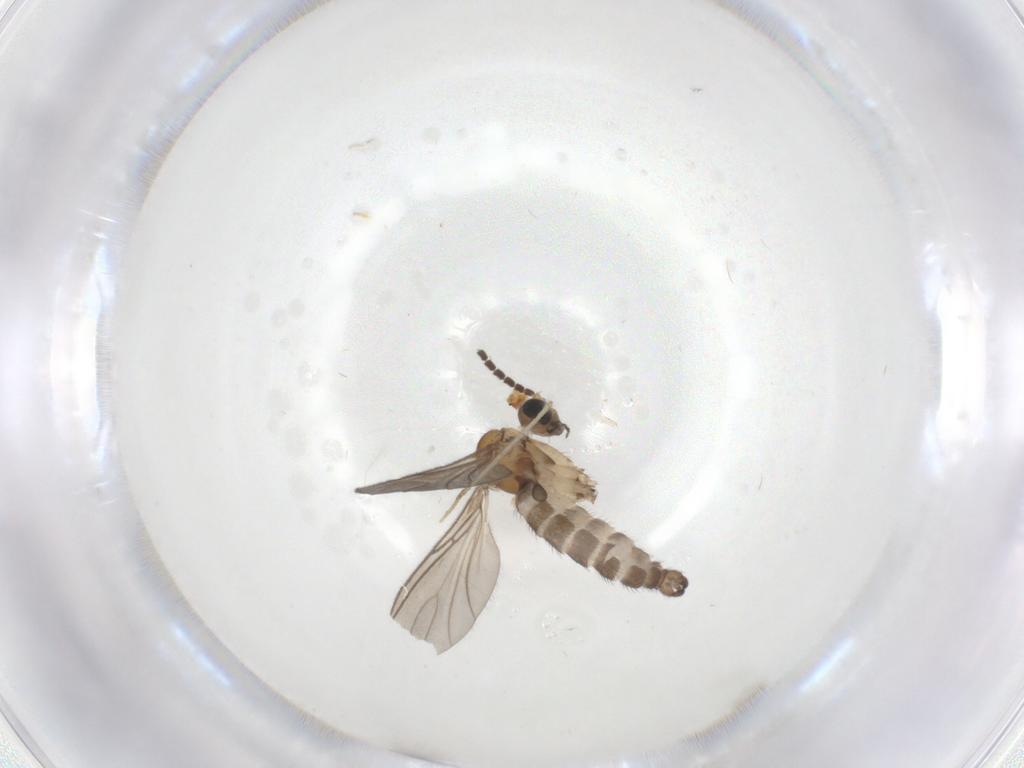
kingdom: Animalia
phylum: Arthropoda
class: Insecta
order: Diptera
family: Sciaridae
